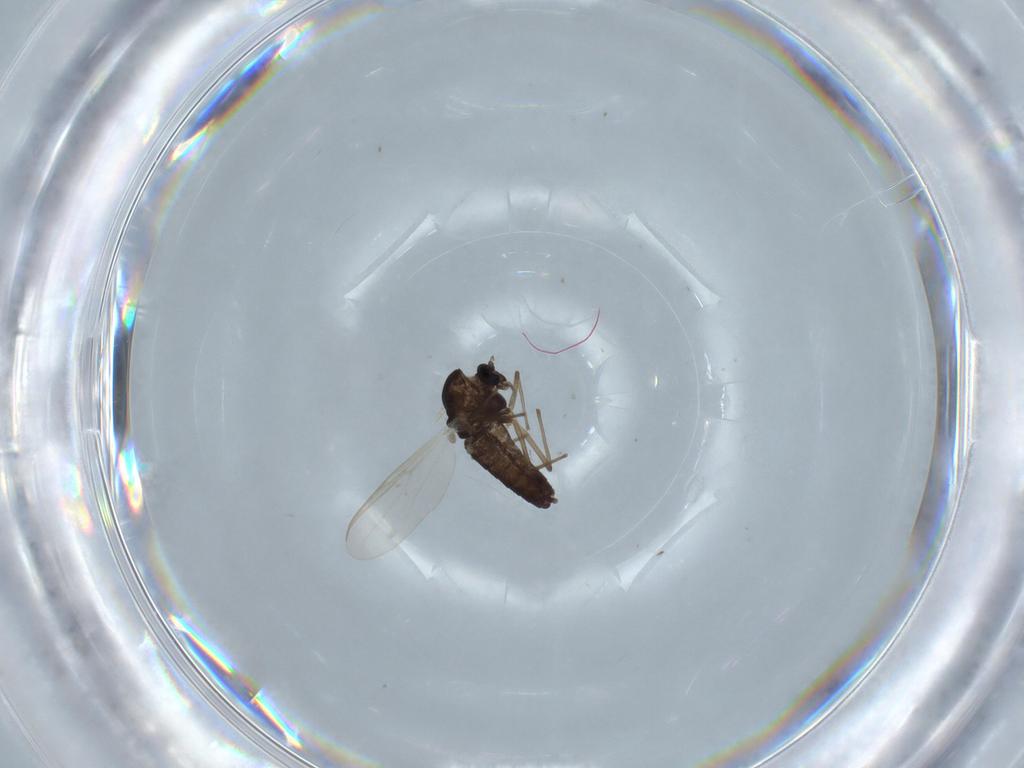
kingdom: Animalia
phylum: Arthropoda
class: Insecta
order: Diptera
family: Chironomidae
